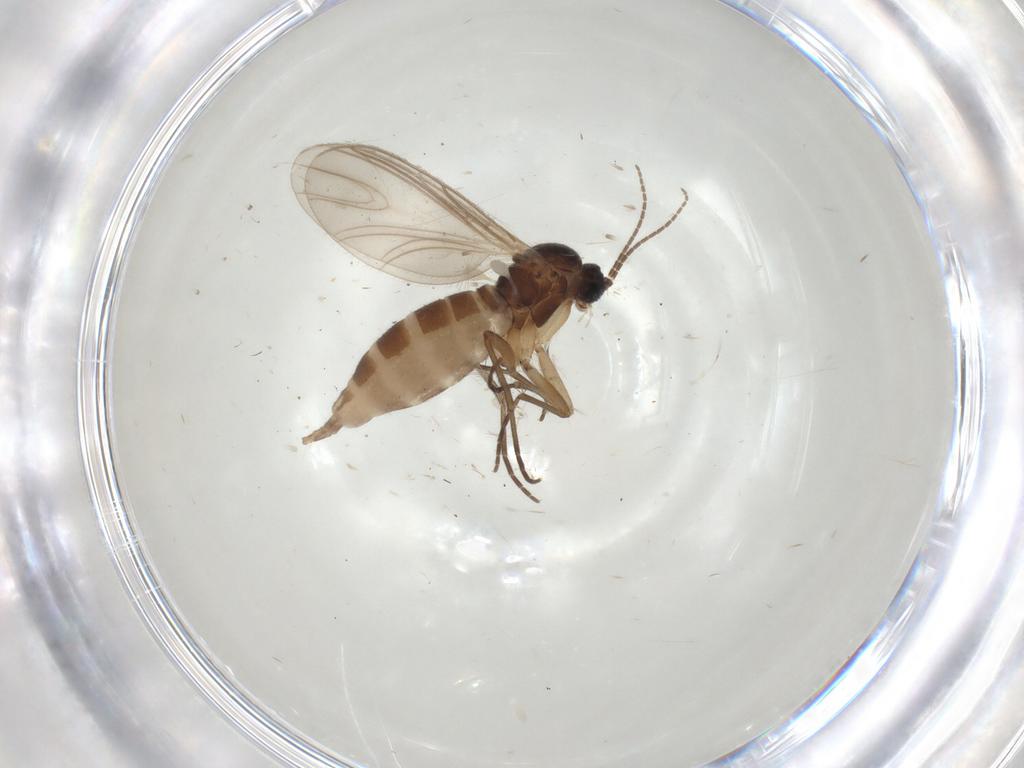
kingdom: Animalia
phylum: Arthropoda
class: Insecta
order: Diptera
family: Sciaridae
